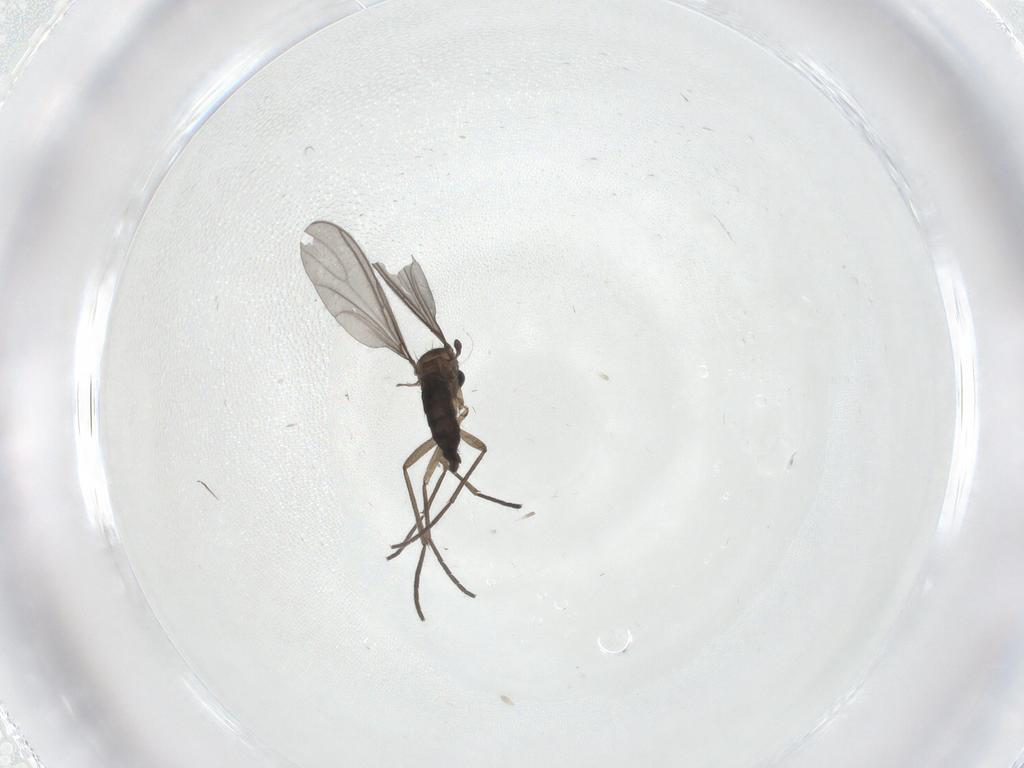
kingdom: Animalia
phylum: Arthropoda
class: Insecta
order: Diptera
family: Sciaridae
